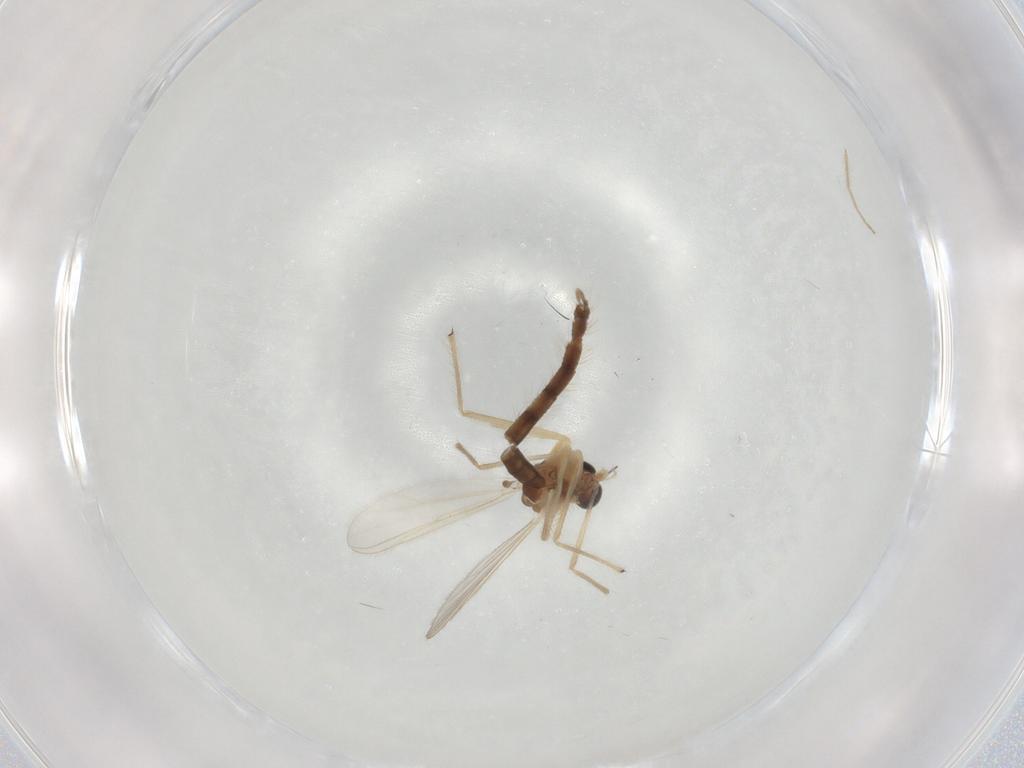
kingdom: Animalia
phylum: Arthropoda
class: Insecta
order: Diptera
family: Chironomidae
